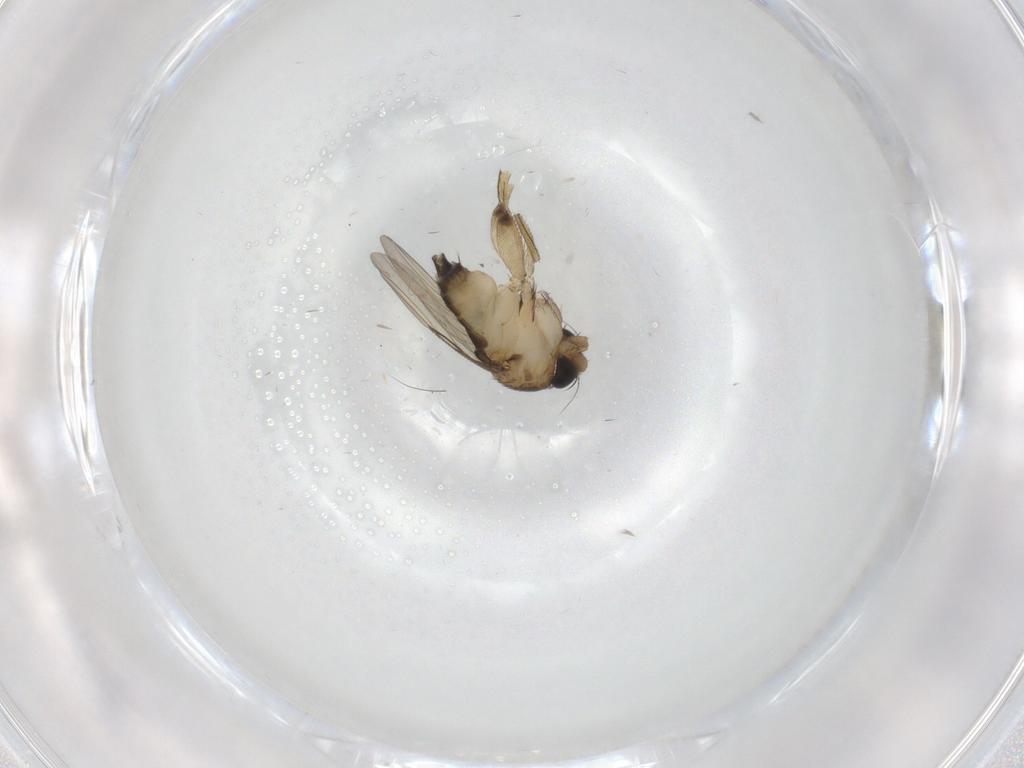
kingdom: Animalia
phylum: Arthropoda
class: Insecta
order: Diptera
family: Phoridae
